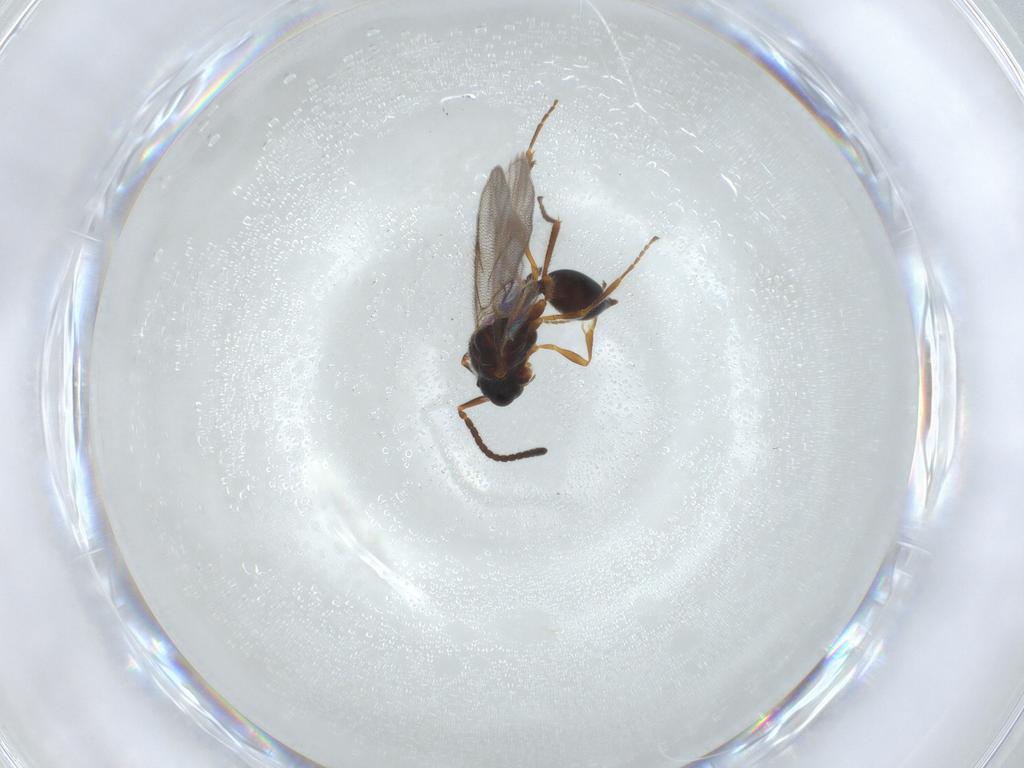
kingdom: Animalia
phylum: Arthropoda
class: Insecta
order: Hymenoptera
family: Diapriidae
